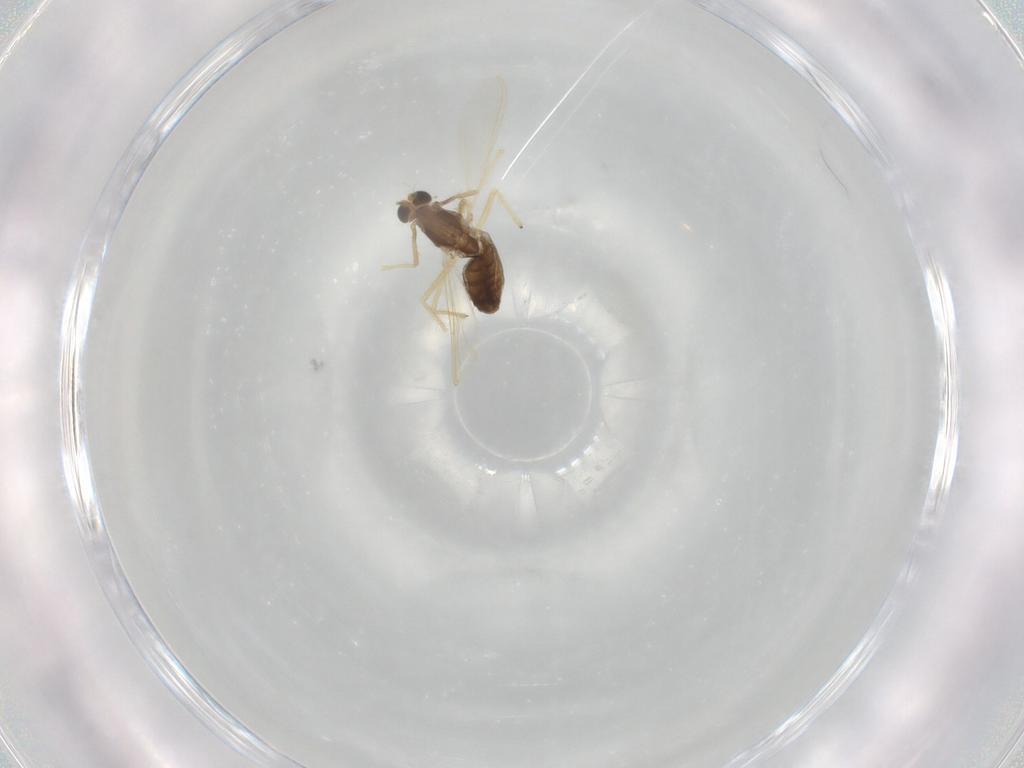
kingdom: Animalia
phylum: Arthropoda
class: Insecta
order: Diptera
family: Chironomidae
